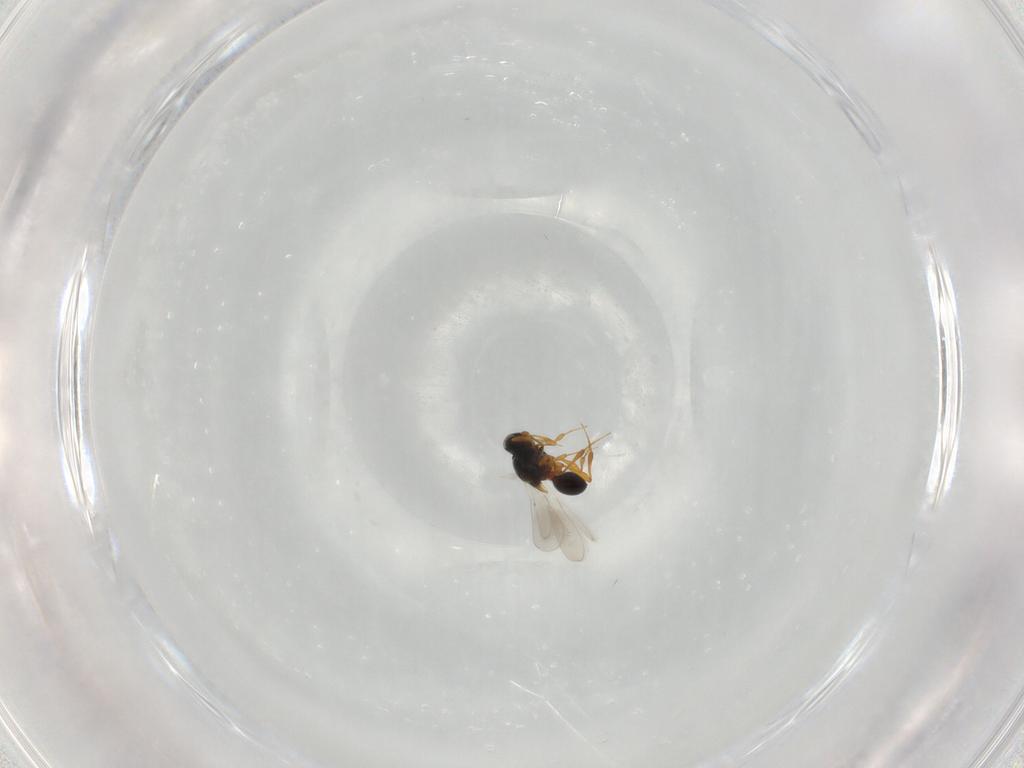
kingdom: Animalia
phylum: Arthropoda
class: Insecta
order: Hymenoptera
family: Platygastridae
